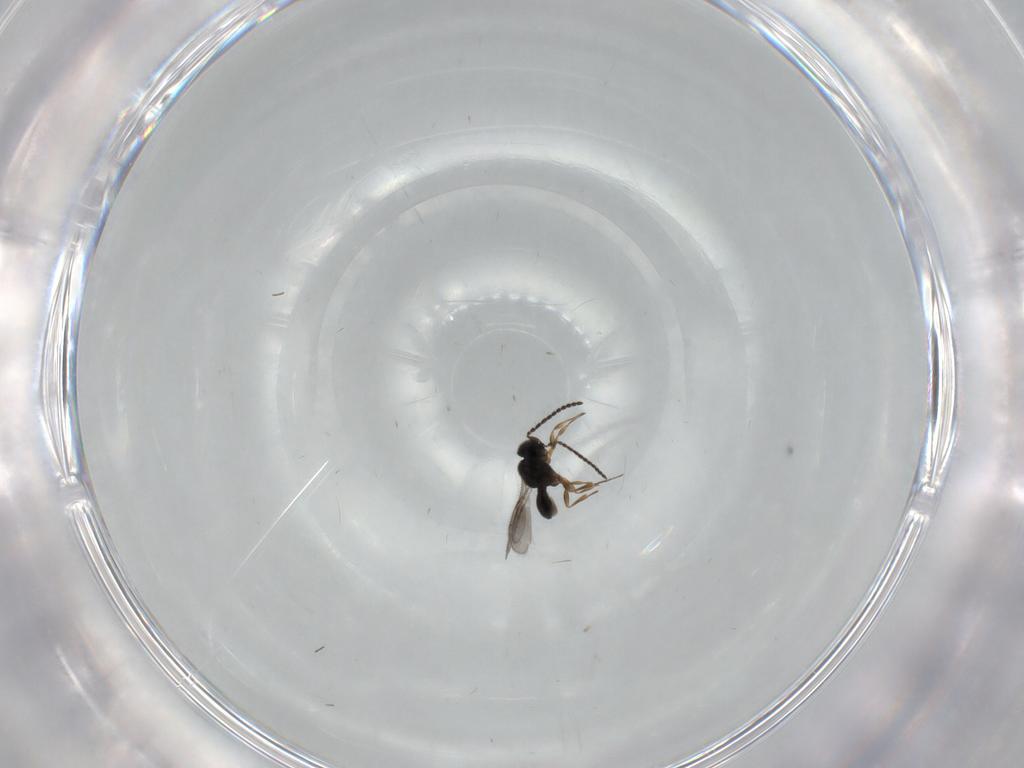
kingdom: Animalia
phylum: Arthropoda
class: Insecta
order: Hymenoptera
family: Scelionidae
